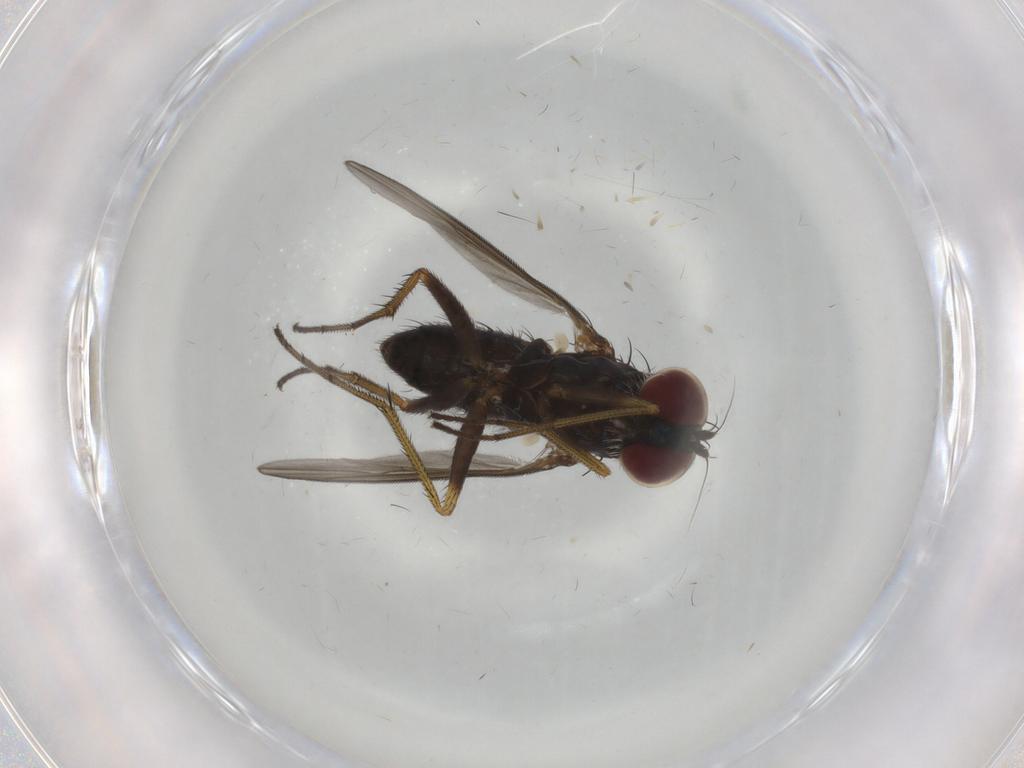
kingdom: Animalia
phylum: Arthropoda
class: Insecta
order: Diptera
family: Dolichopodidae
